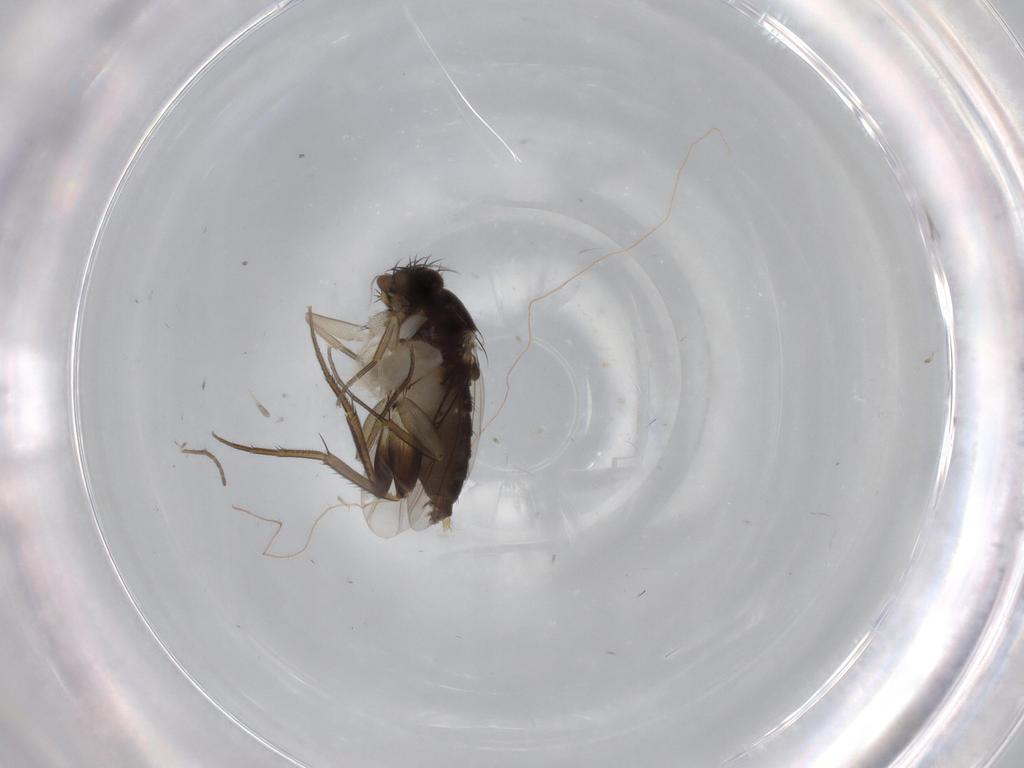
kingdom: Animalia
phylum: Arthropoda
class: Insecta
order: Diptera
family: Phoridae
